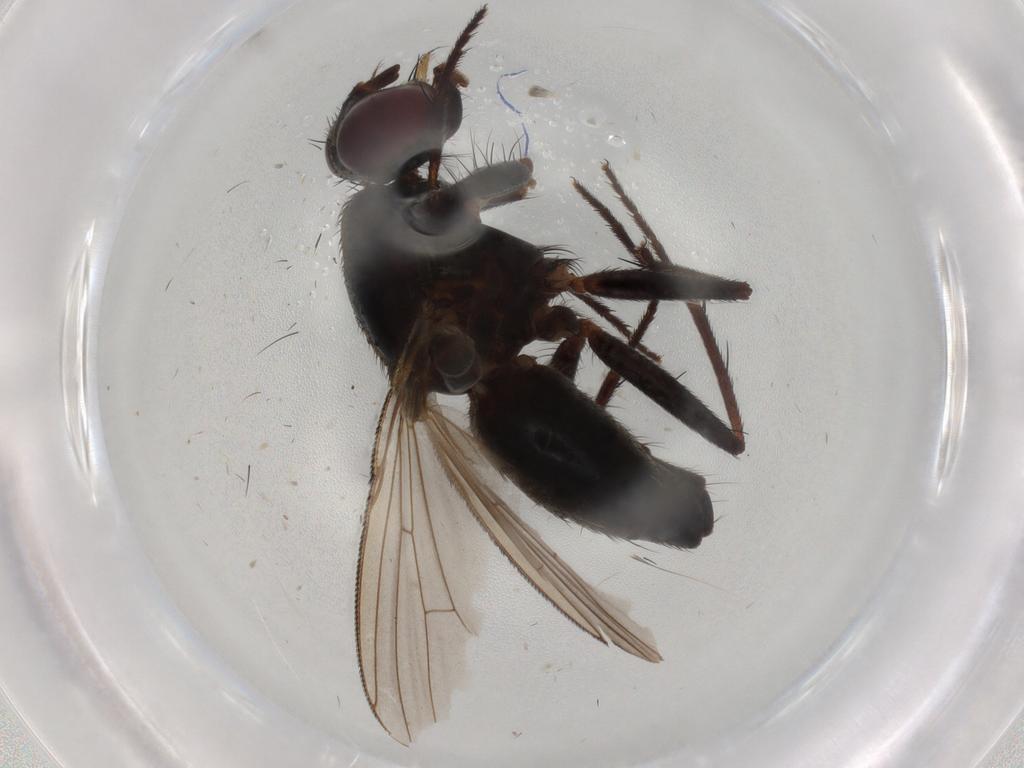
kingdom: Animalia
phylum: Arthropoda
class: Insecta
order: Diptera
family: Muscidae
